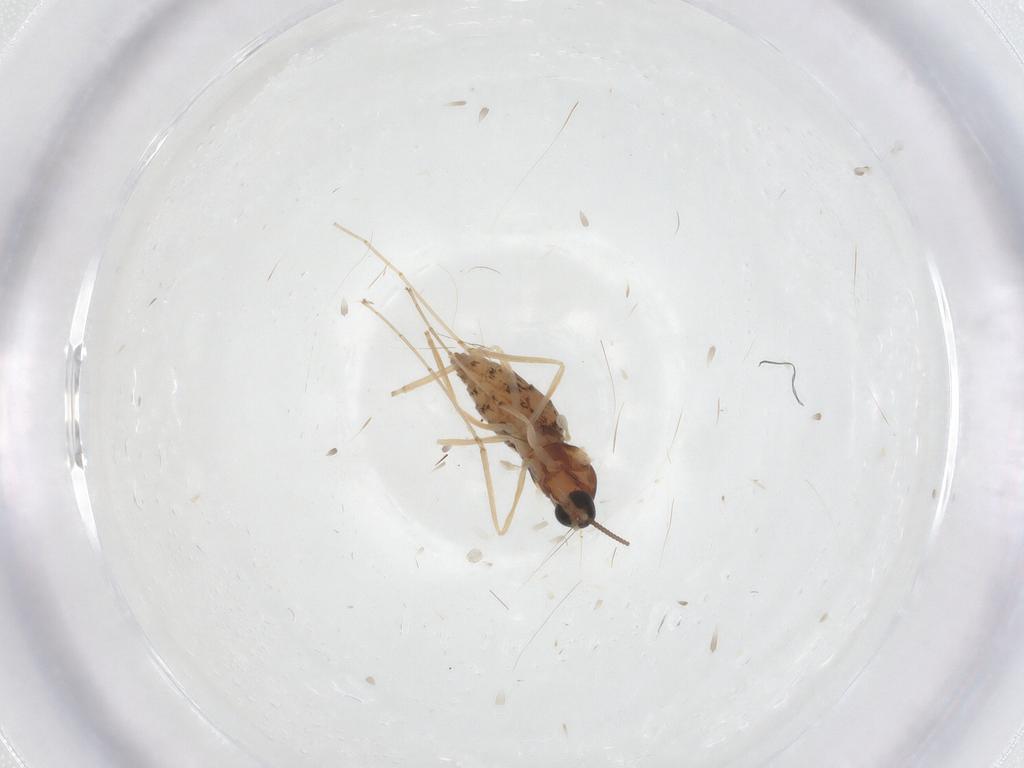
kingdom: Animalia
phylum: Arthropoda
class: Insecta
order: Diptera
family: Cecidomyiidae
